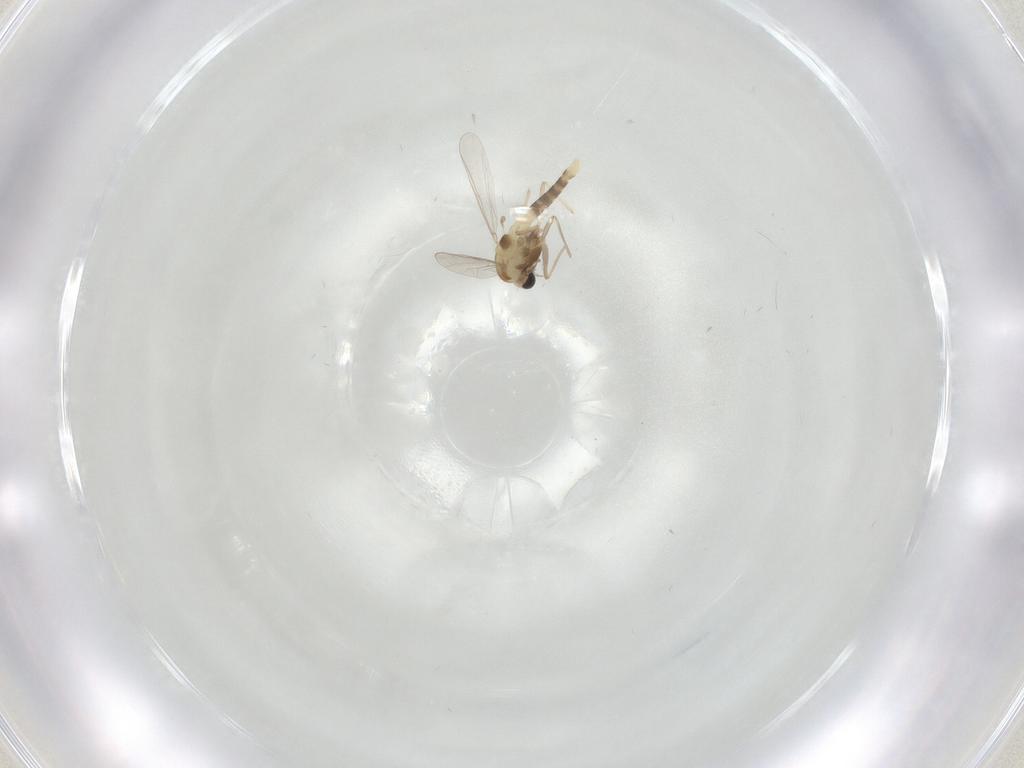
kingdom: Animalia
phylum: Arthropoda
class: Insecta
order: Diptera
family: Chironomidae
